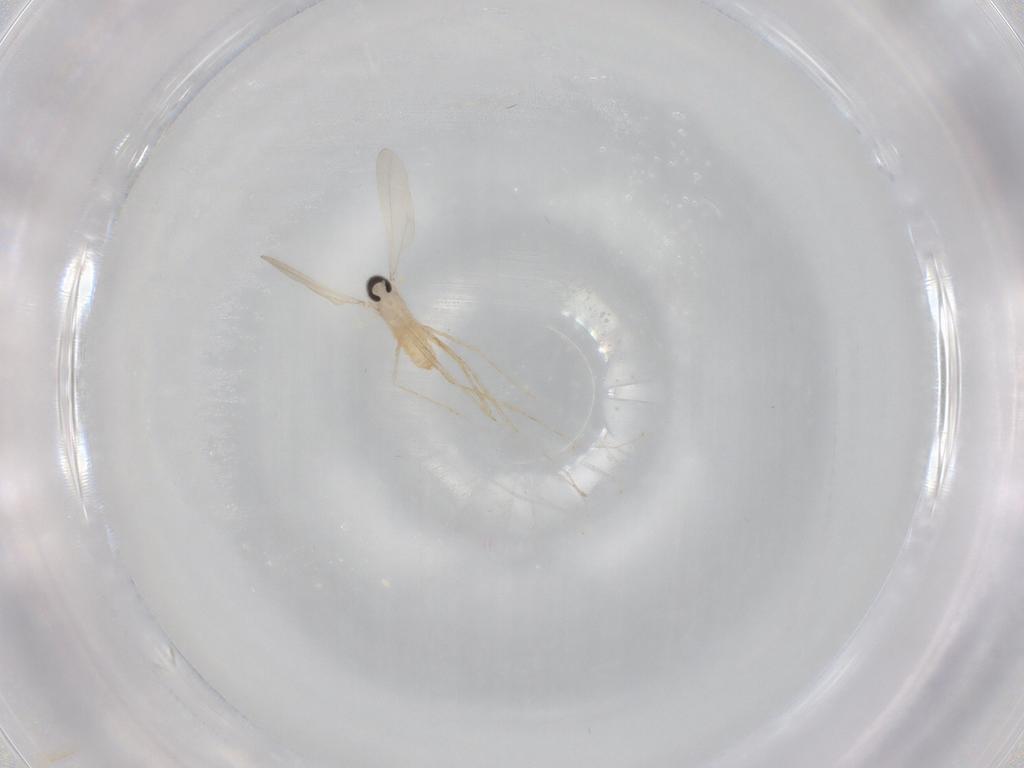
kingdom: Animalia
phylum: Arthropoda
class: Insecta
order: Diptera
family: Cecidomyiidae
